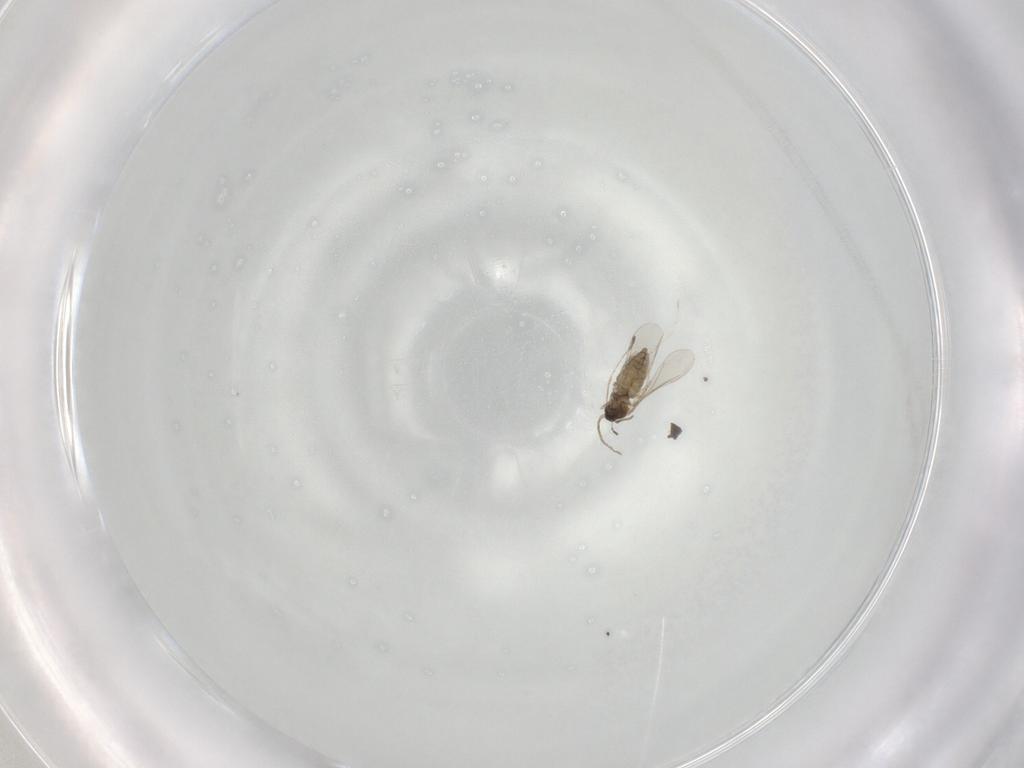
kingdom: Animalia
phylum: Arthropoda
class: Insecta
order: Diptera
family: Cecidomyiidae
